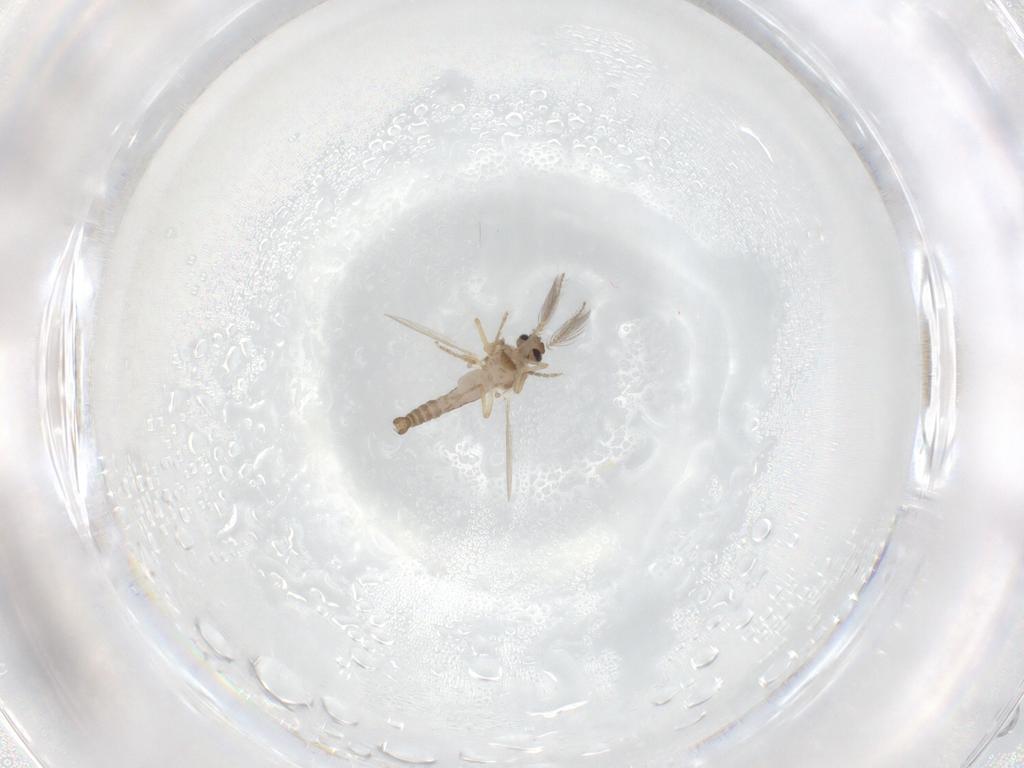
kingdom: Animalia
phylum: Arthropoda
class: Insecta
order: Diptera
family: Ceratopogonidae
